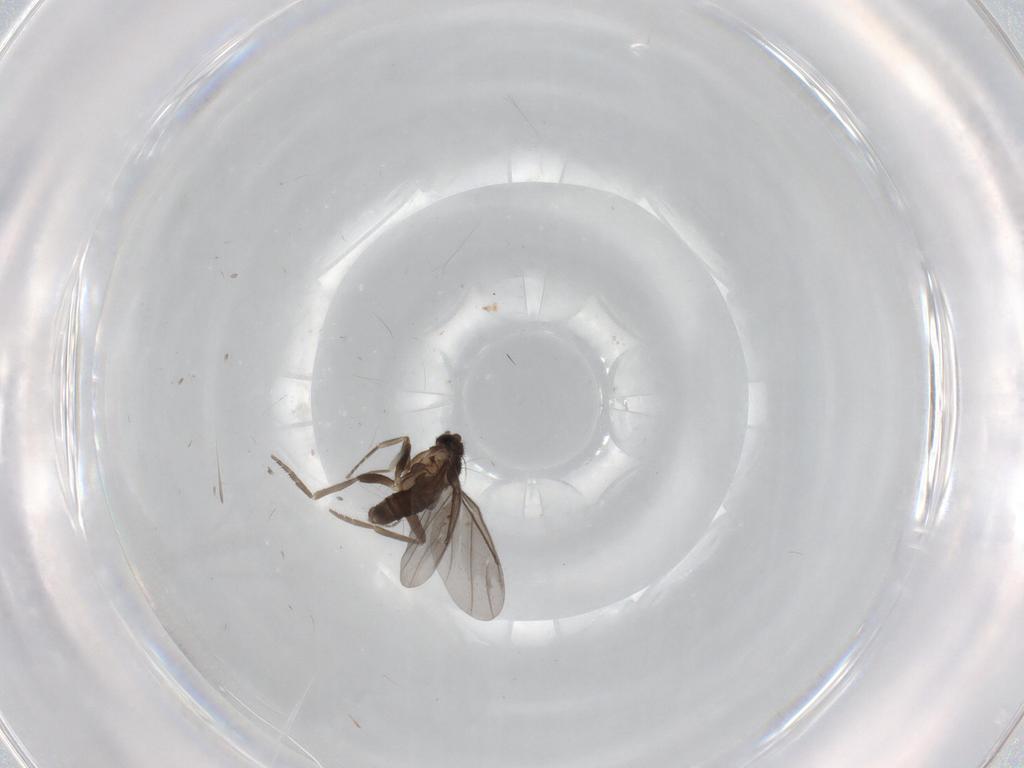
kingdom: Animalia
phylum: Arthropoda
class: Insecta
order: Diptera
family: Phoridae
